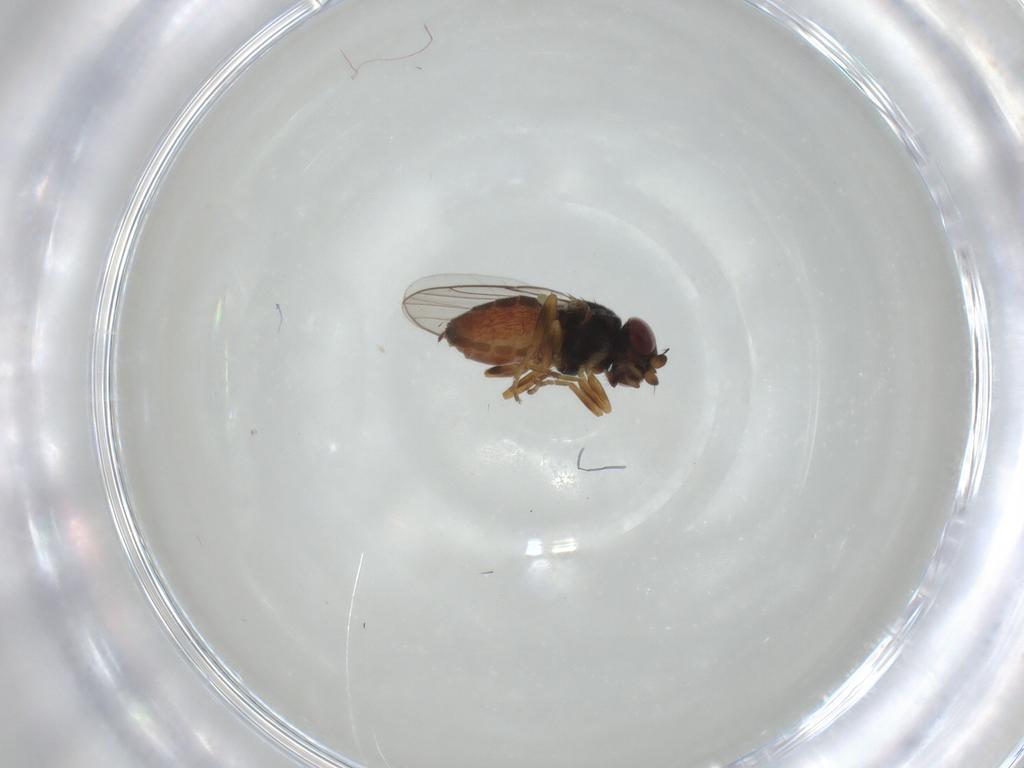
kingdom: Animalia
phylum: Arthropoda
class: Insecta
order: Diptera
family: Chloropidae
